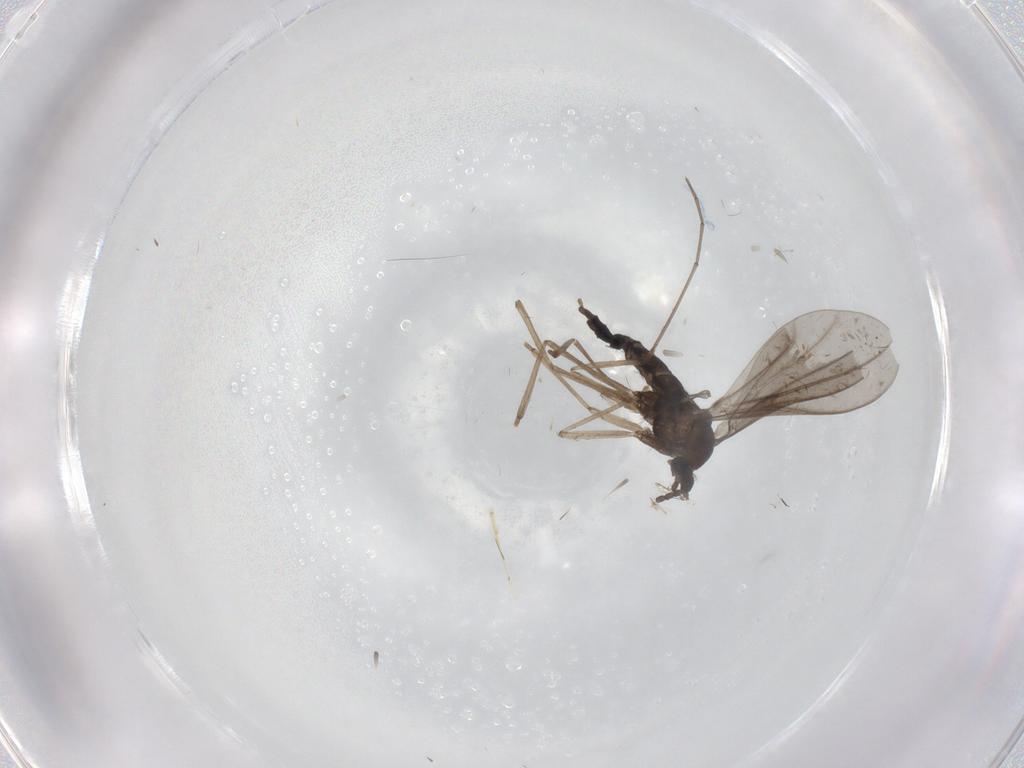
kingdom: Animalia
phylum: Arthropoda
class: Insecta
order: Diptera
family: Cecidomyiidae
